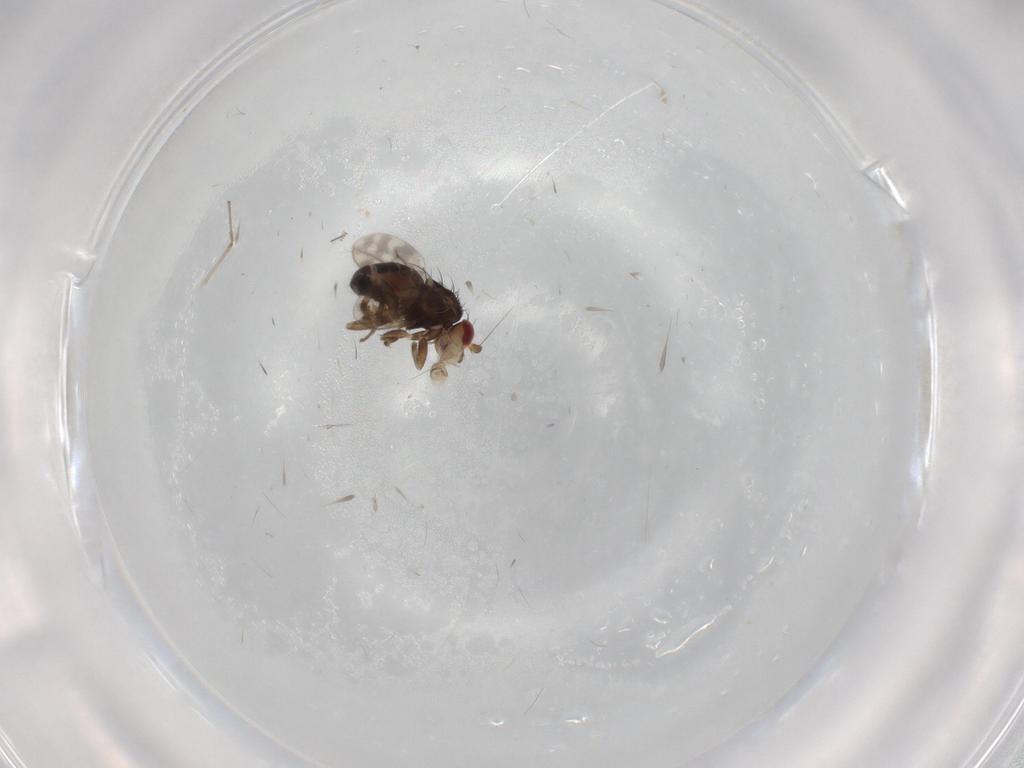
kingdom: Animalia
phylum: Arthropoda
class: Insecta
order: Diptera
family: Sphaeroceridae
